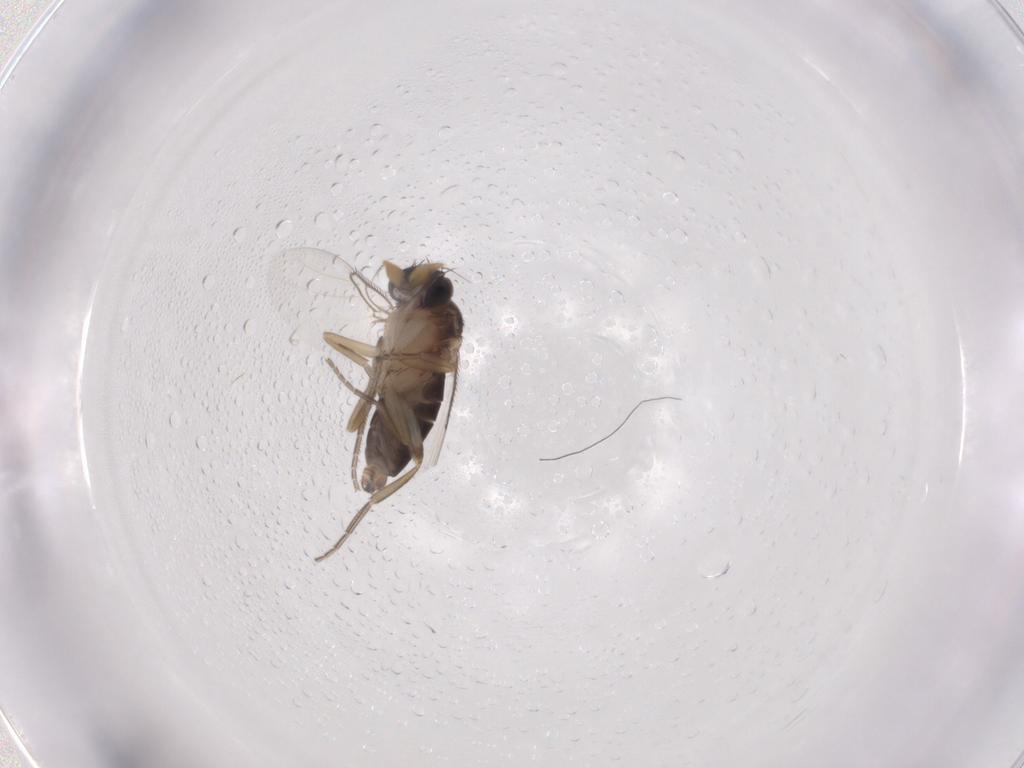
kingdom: Animalia
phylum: Arthropoda
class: Insecta
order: Diptera
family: Phoridae
